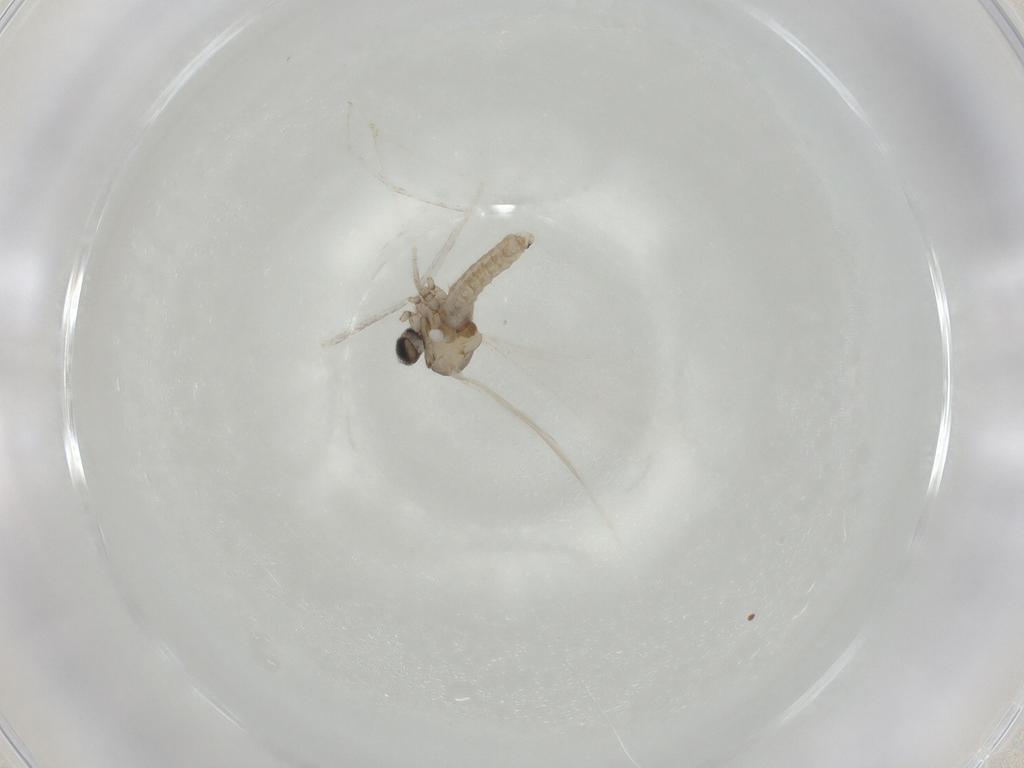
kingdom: Animalia
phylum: Arthropoda
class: Insecta
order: Diptera
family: Cecidomyiidae
